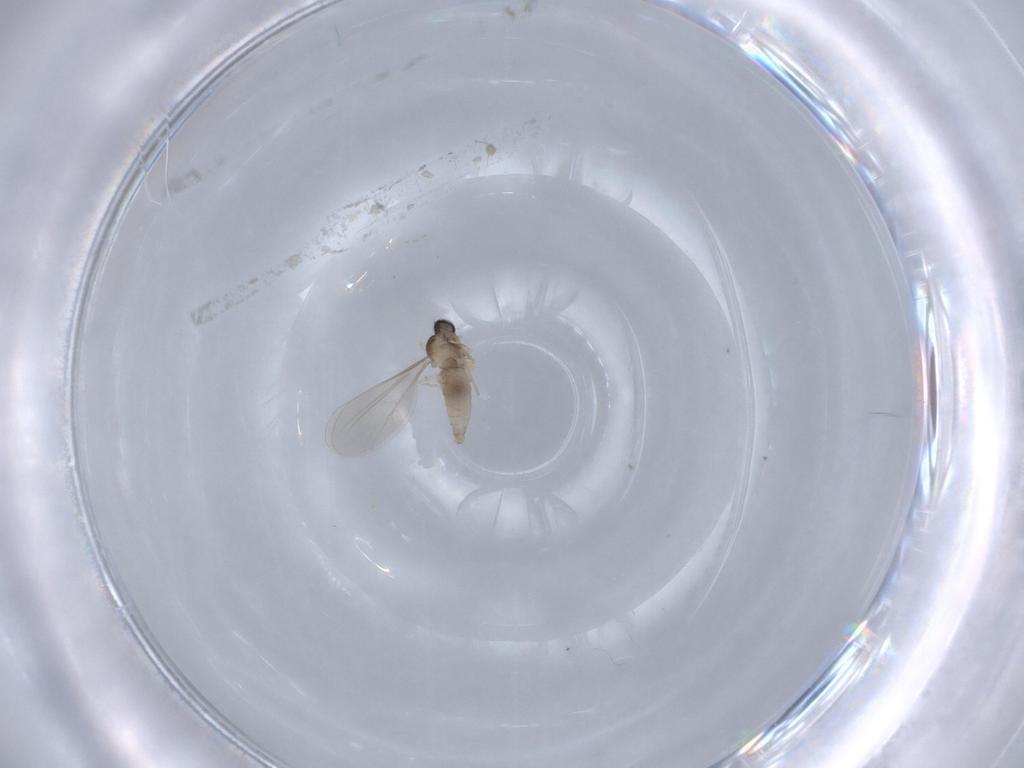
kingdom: Animalia
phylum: Arthropoda
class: Insecta
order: Diptera
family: Cecidomyiidae
